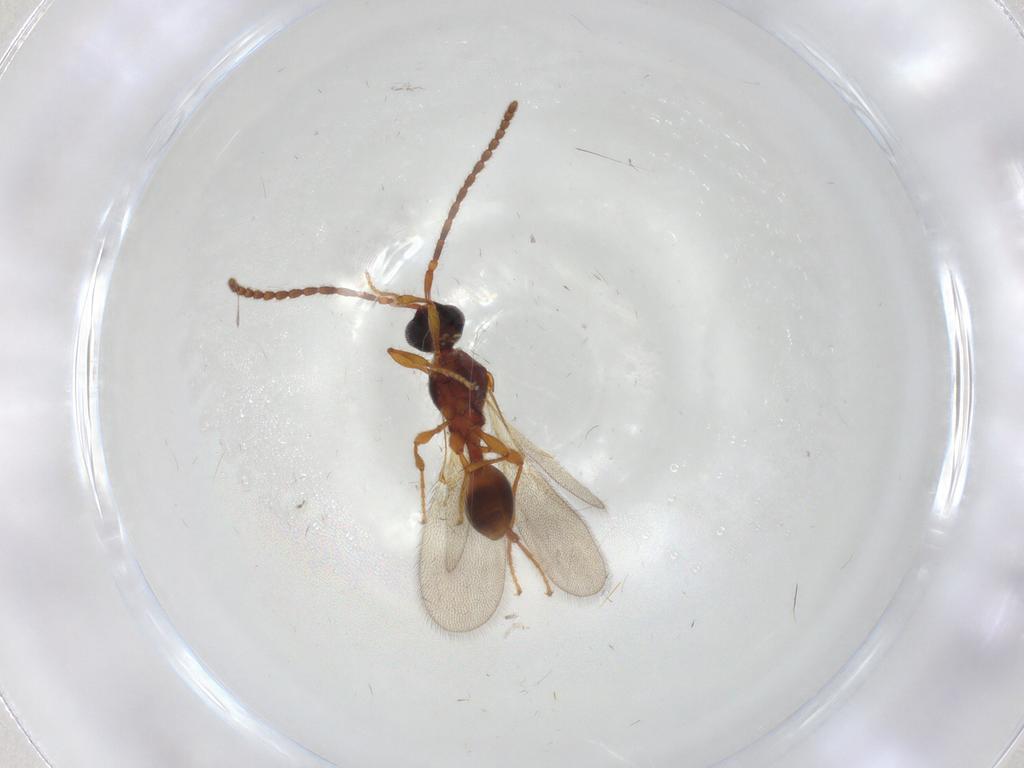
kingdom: Animalia
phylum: Arthropoda
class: Insecta
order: Hymenoptera
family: Diapriidae
